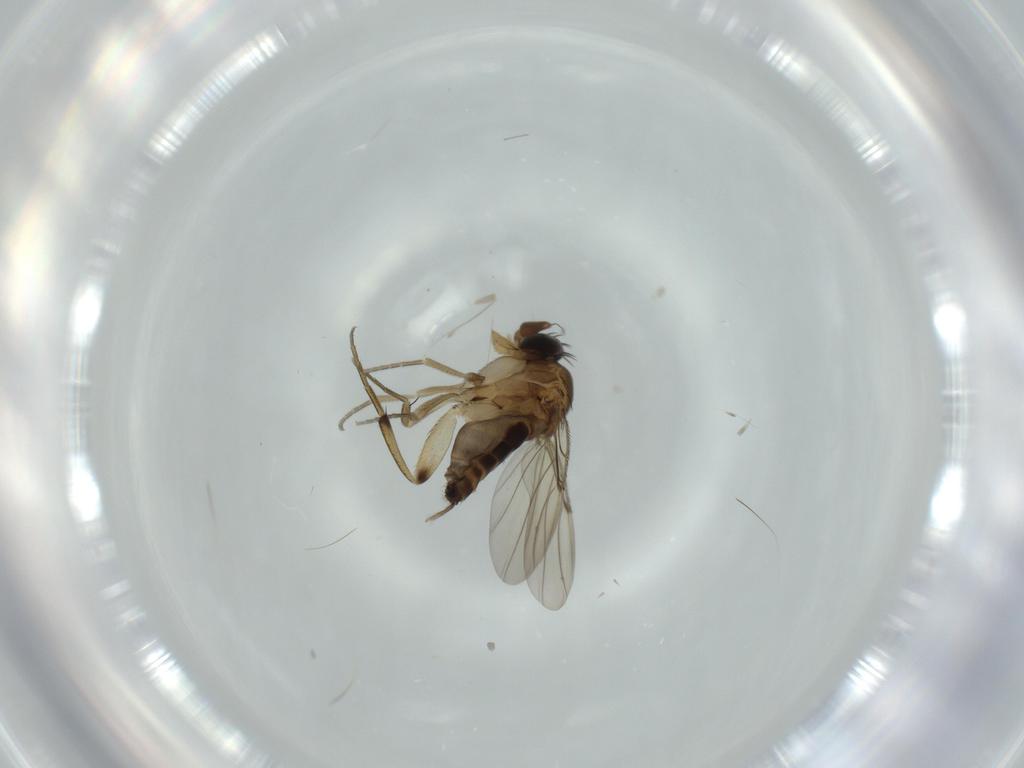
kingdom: Animalia
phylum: Arthropoda
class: Insecta
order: Diptera
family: Phoridae
